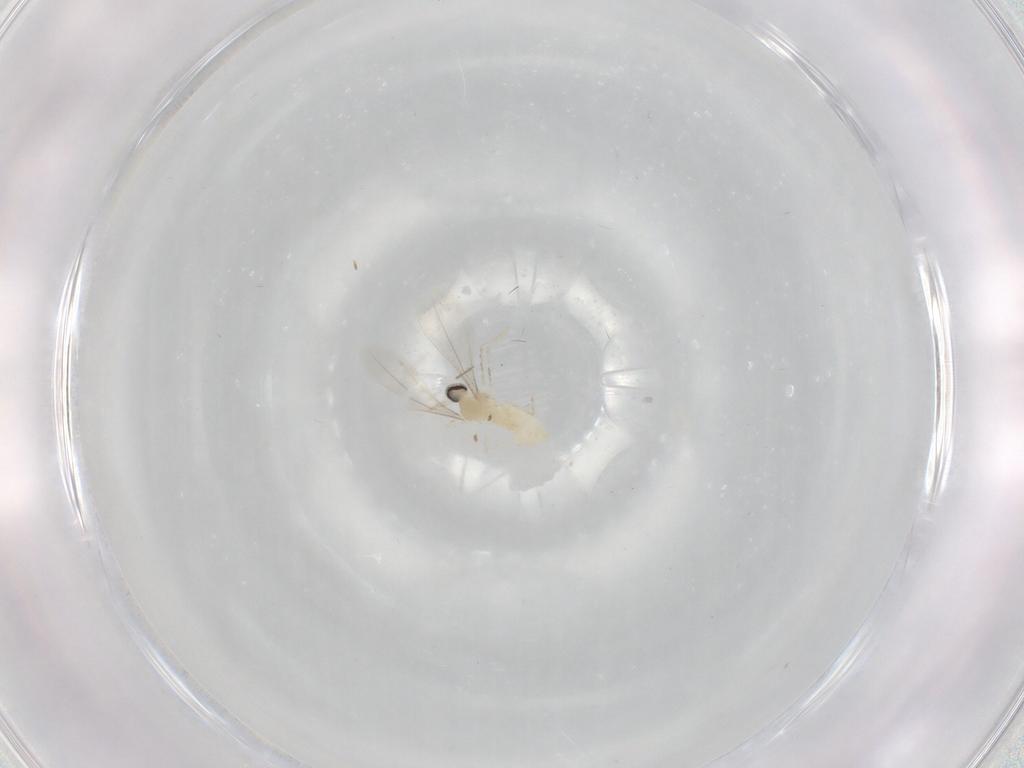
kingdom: Animalia
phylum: Arthropoda
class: Insecta
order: Diptera
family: Cecidomyiidae
